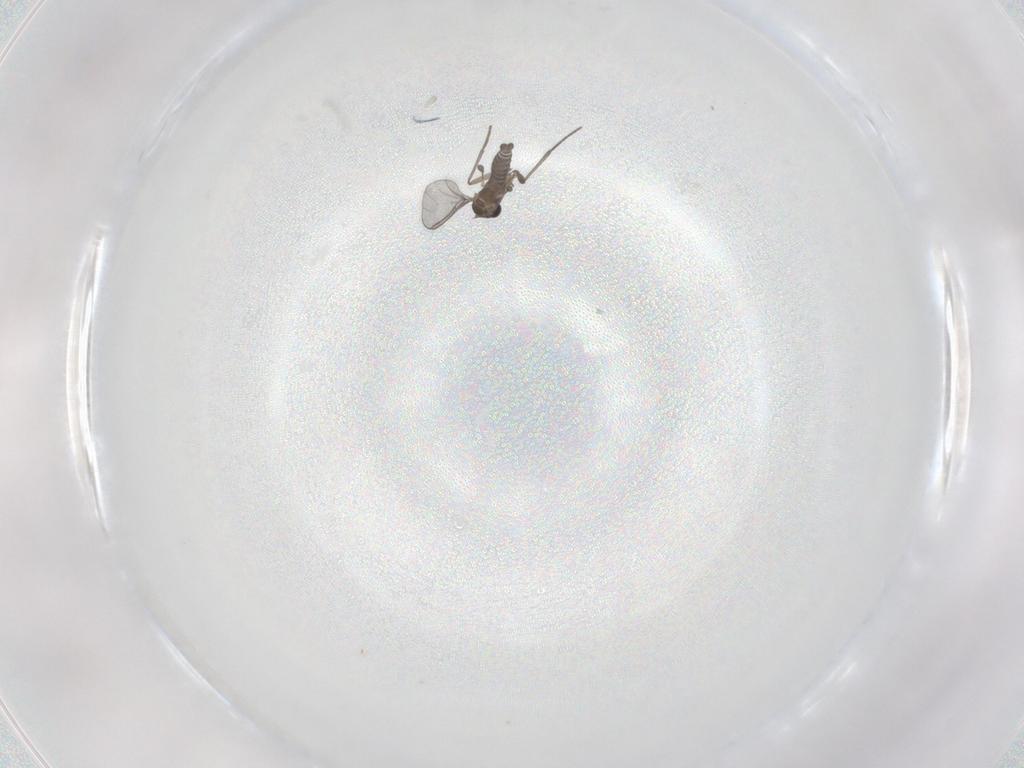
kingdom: Animalia
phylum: Arthropoda
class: Insecta
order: Diptera
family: Sciaridae
